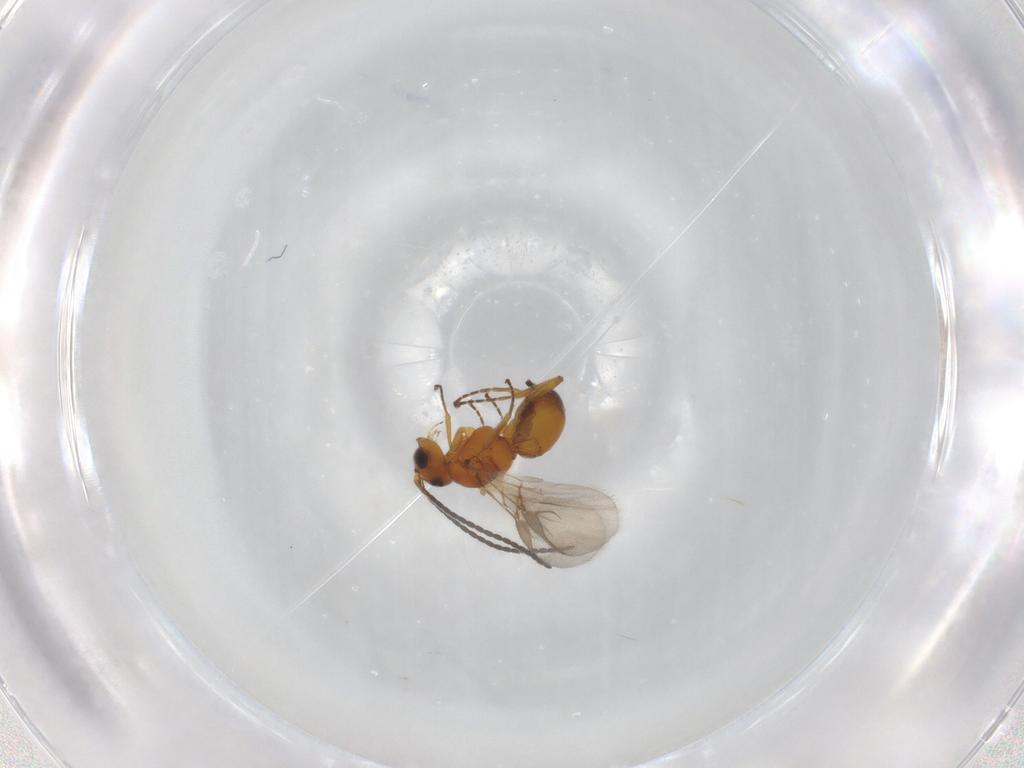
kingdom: Animalia
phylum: Arthropoda
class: Insecta
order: Hymenoptera
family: Braconidae
